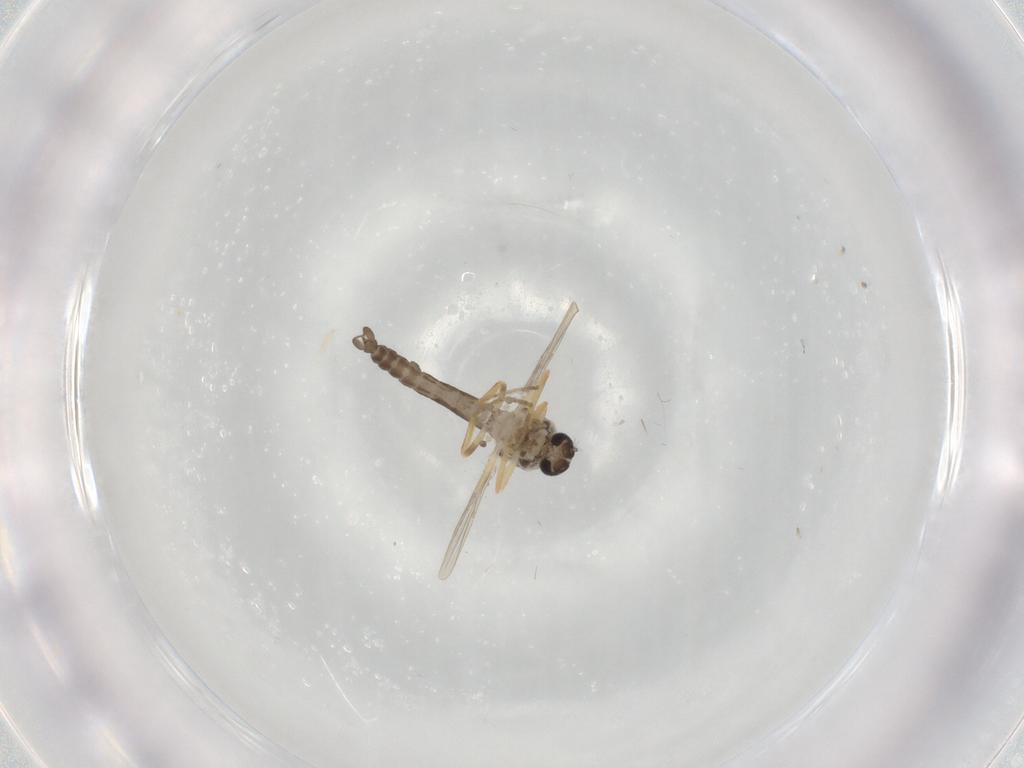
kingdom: Animalia
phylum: Arthropoda
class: Insecta
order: Diptera
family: Ceratopogonidae
